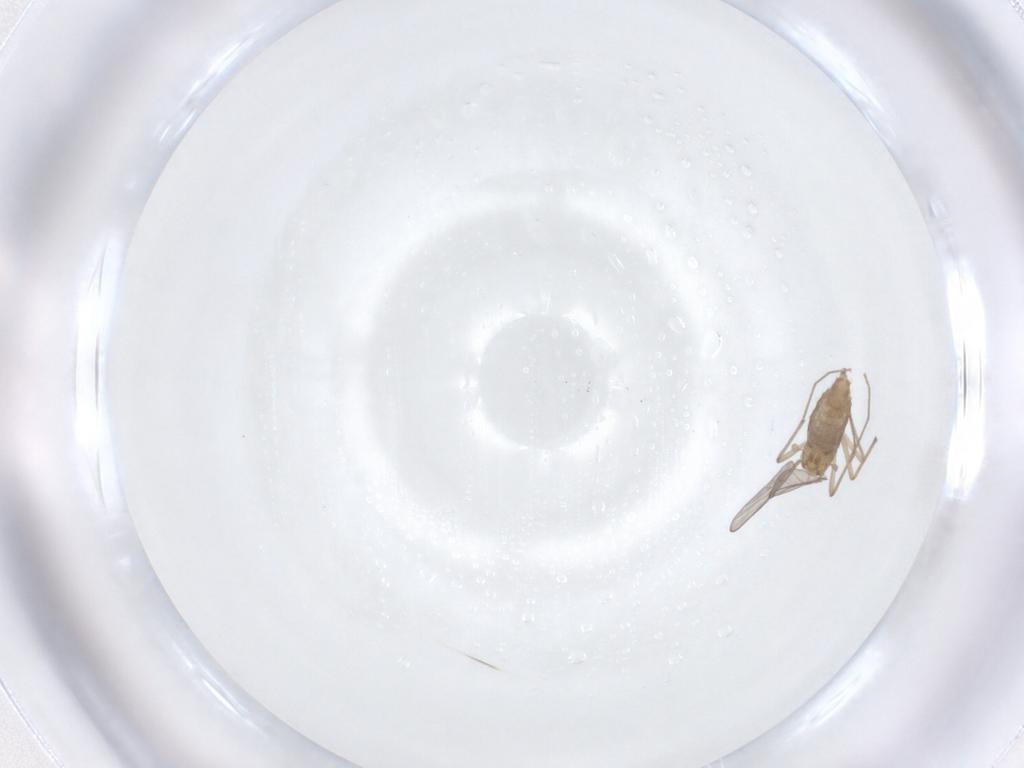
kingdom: Animalia
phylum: Arthropoda
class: Insecta
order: Diptera
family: Chironomidae
